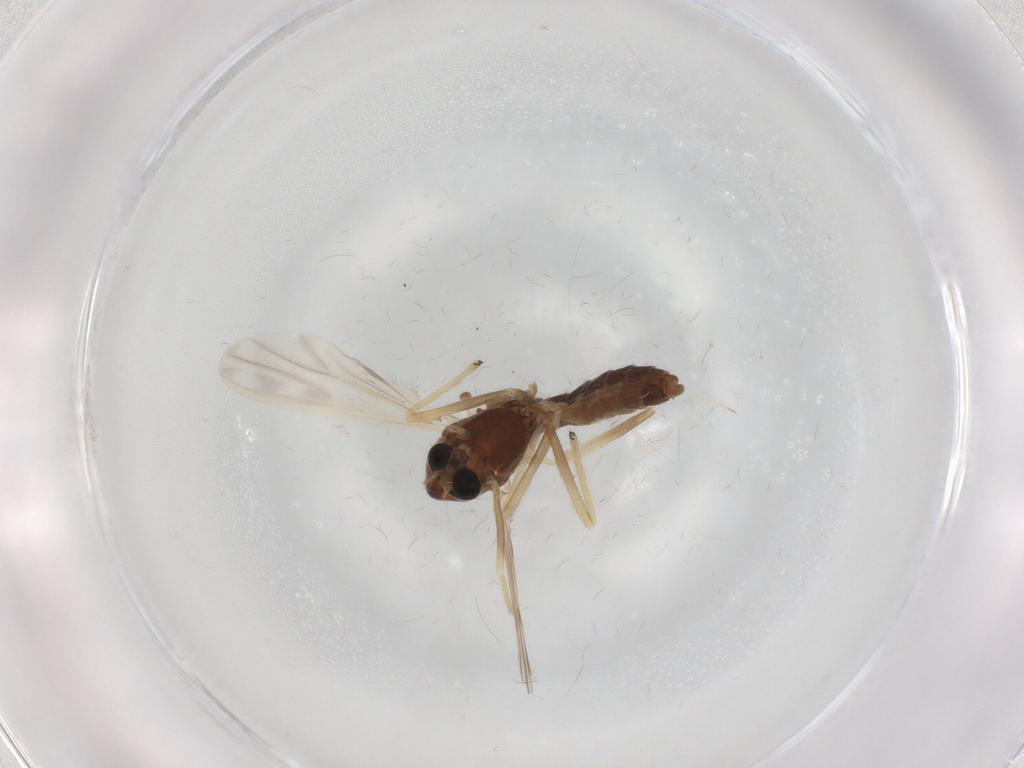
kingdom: Animalia
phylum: Arthropoda
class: Insecta
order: Diptera
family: Chironomidae
